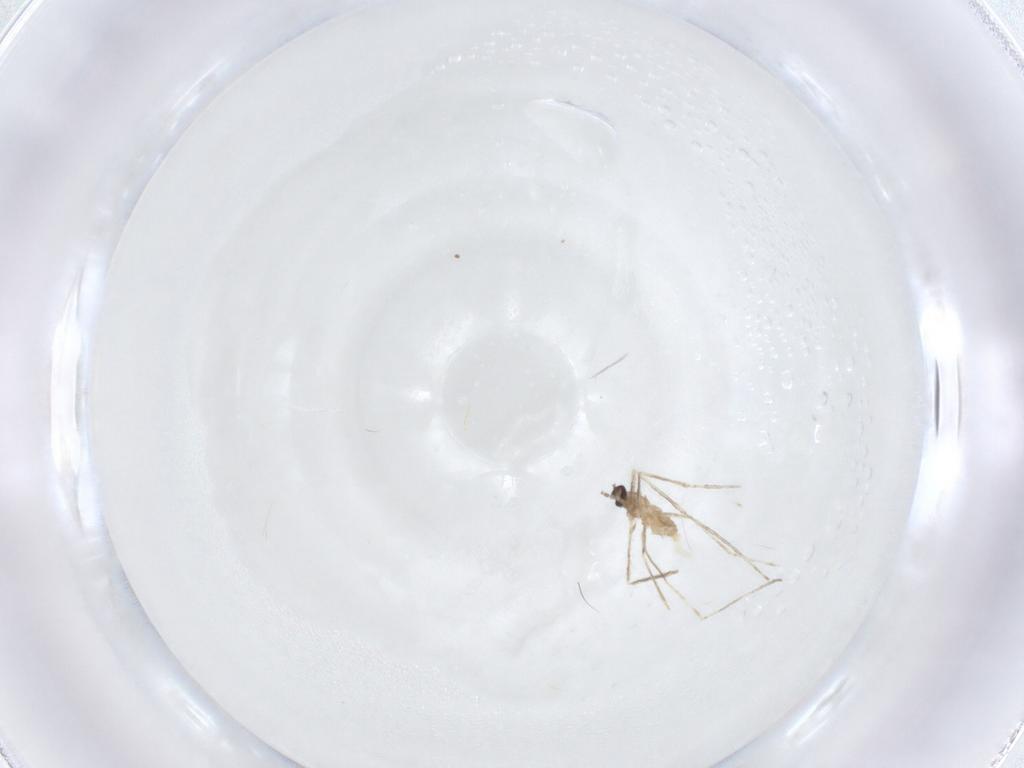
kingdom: Animalia
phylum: Arthropoda
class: Insecta
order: Diptera
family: Cecidomyiidae
